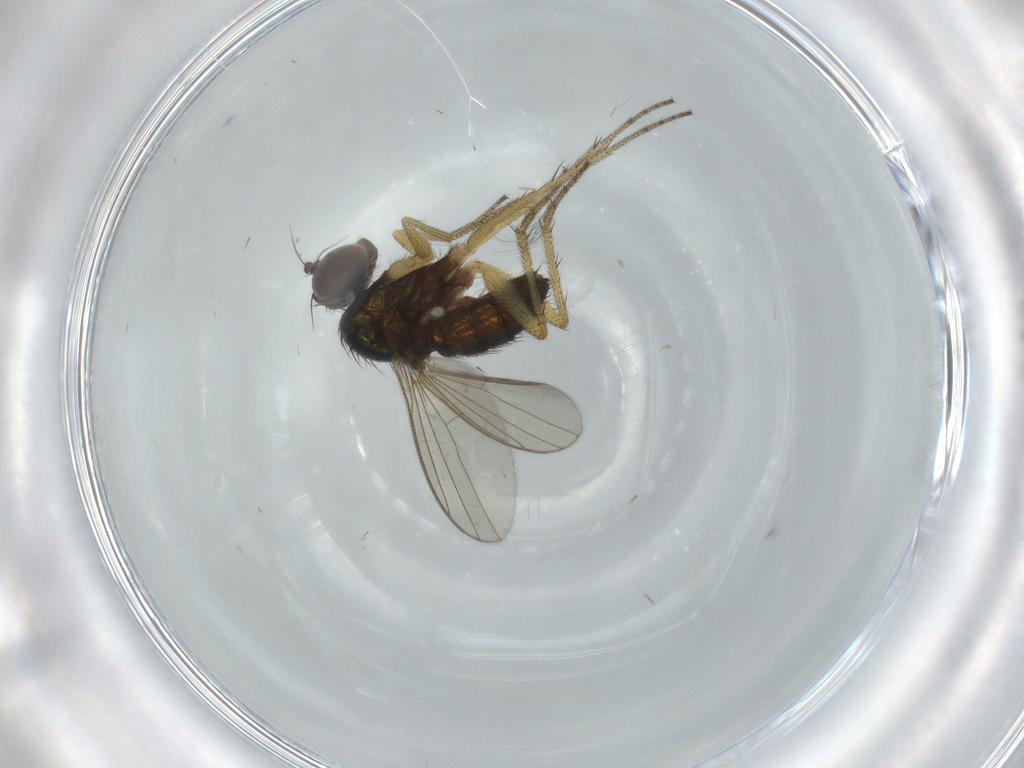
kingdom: Animalia
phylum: Arthropoda
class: Insecta
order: Diptera
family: Dolichopodidae
